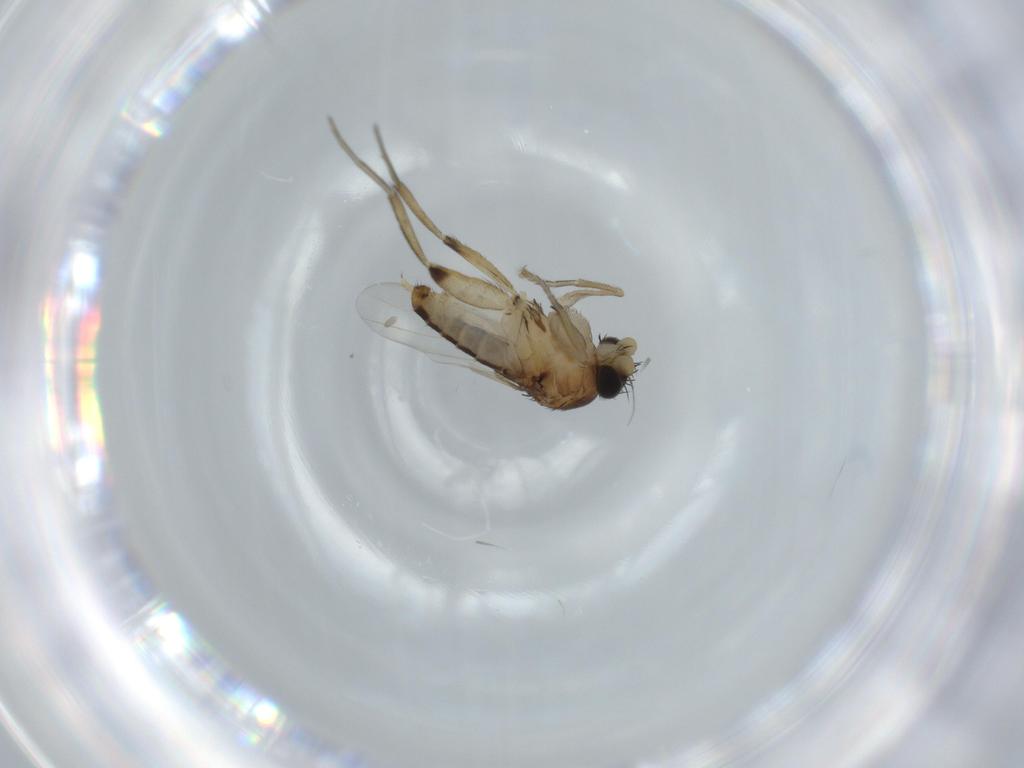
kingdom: Animalia
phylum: Arthropoda
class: Insecta
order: Diptera
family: Phoridae
